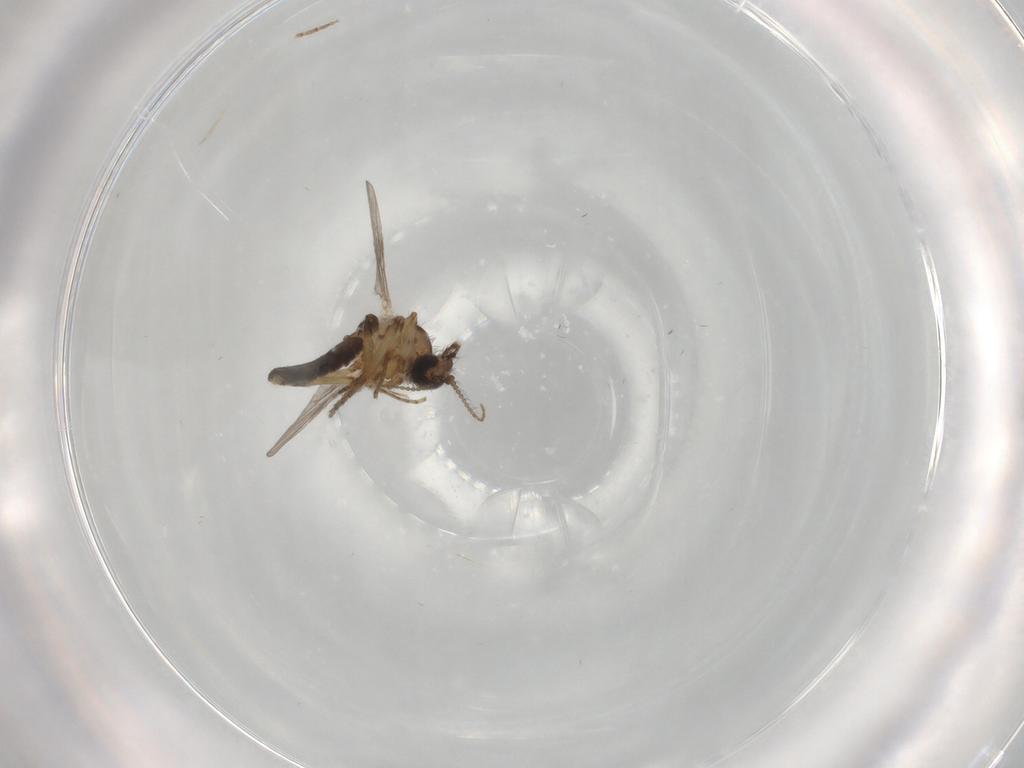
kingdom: Animalia
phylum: Arthropoda
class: Insecta
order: Diptera
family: Ceratopogonidae
